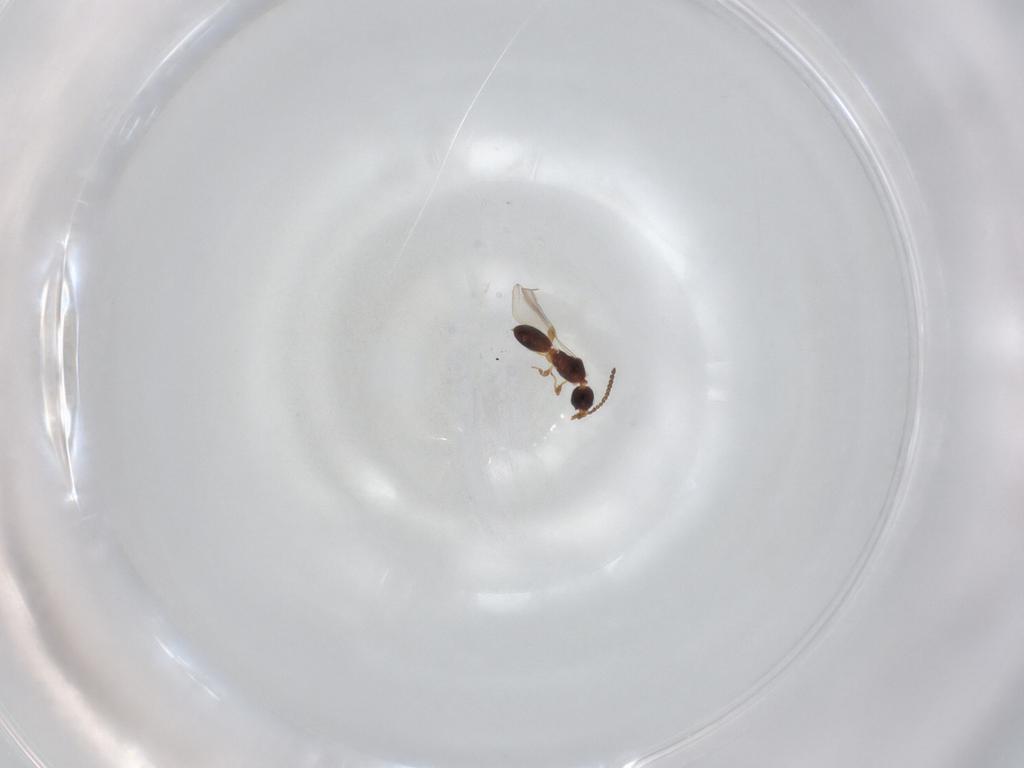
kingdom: Animalia
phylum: Arthropoda
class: Insecta
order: Hymenoptera
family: Diapriidae
